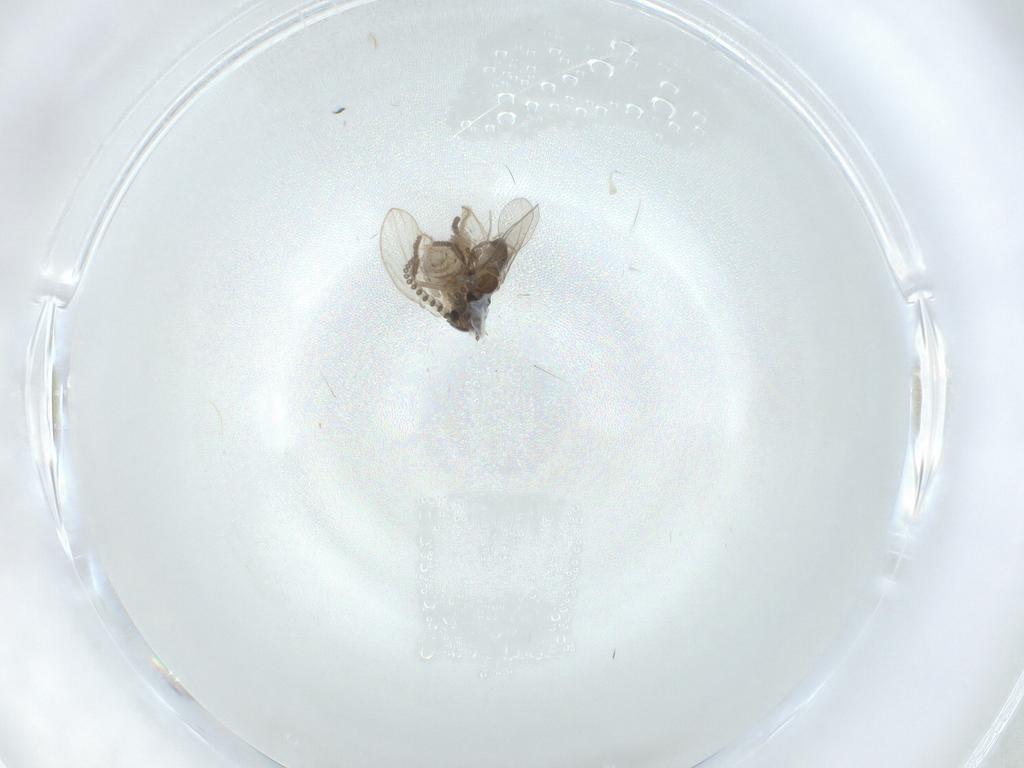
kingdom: Animalia
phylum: Arthropoda
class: Insecta
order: Diptera
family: Psychodidae
